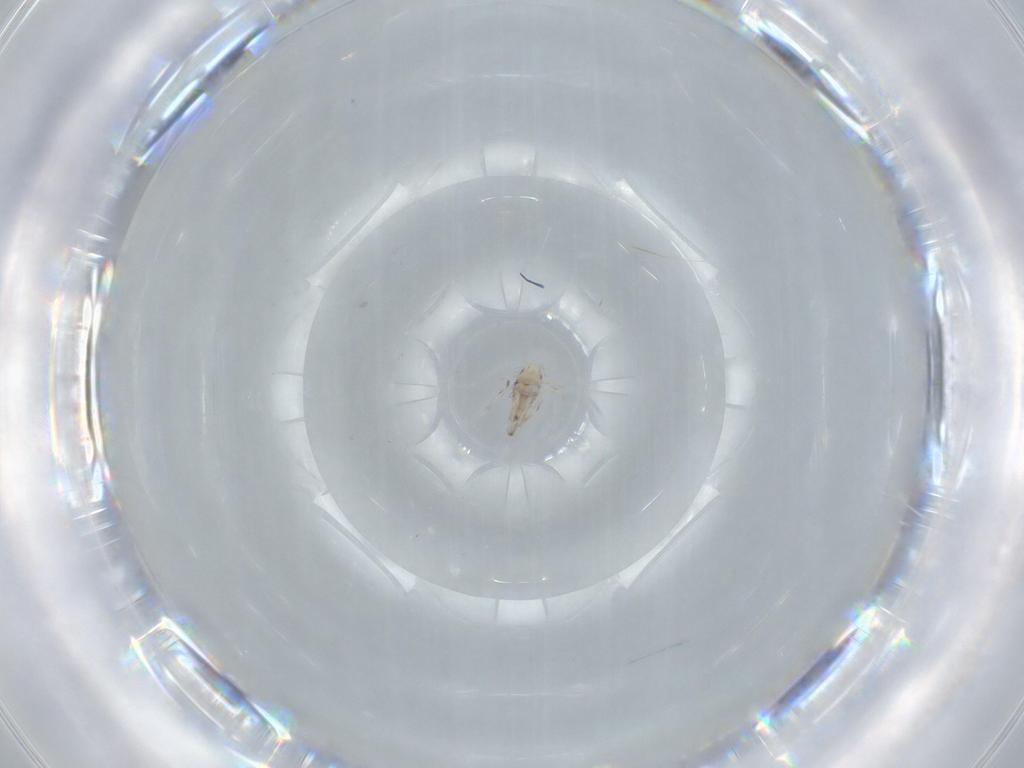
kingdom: Animalia
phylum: Arthropoda
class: Collembola
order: Entomobryomorpha
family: Entomobryidae
